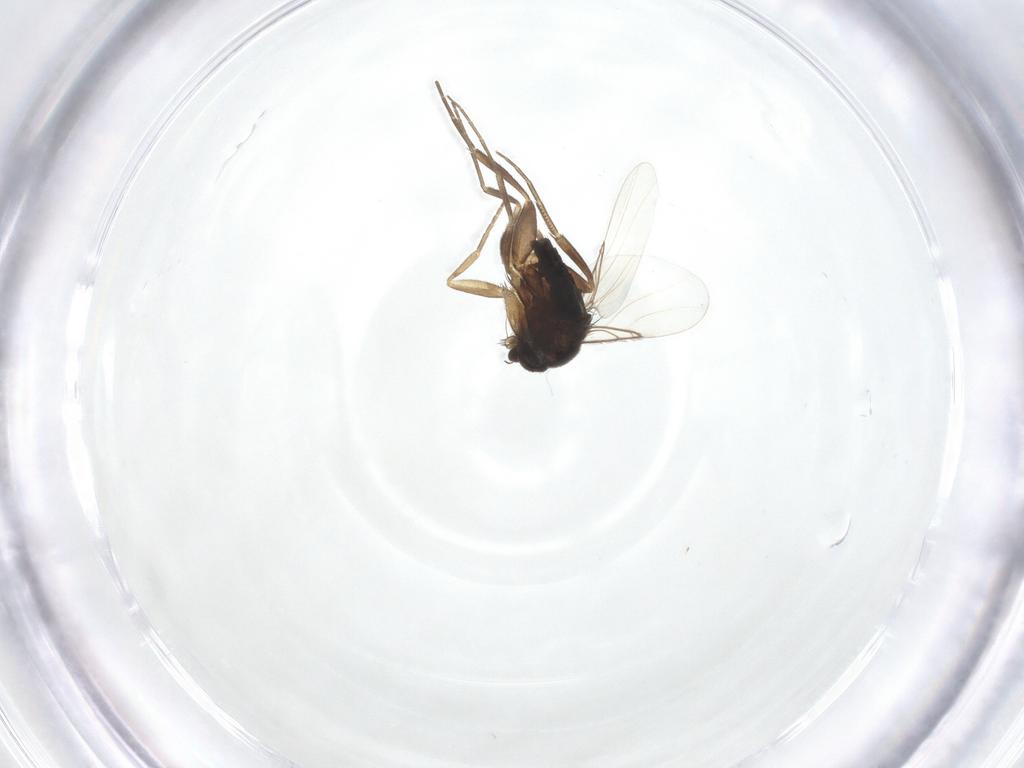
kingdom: Animalia
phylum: Arthropoda
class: Insecta
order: Diptera
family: Phoridae
